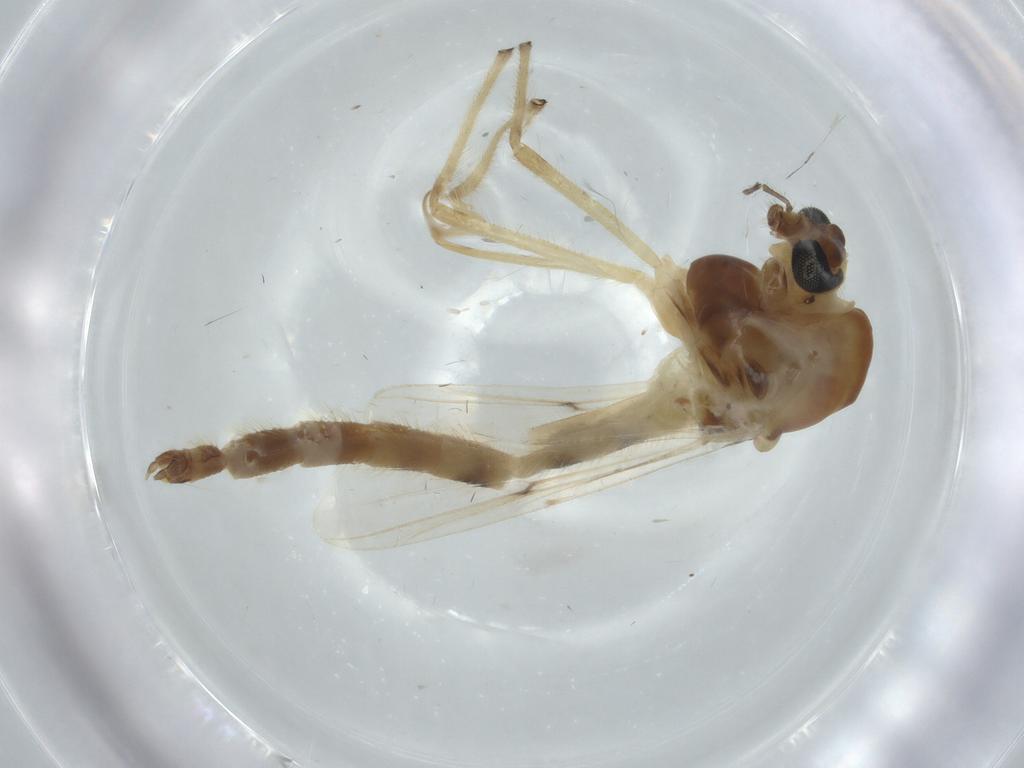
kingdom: Animalia
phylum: Arthropoda
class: Insecta
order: Diptera
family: Chironomidae
